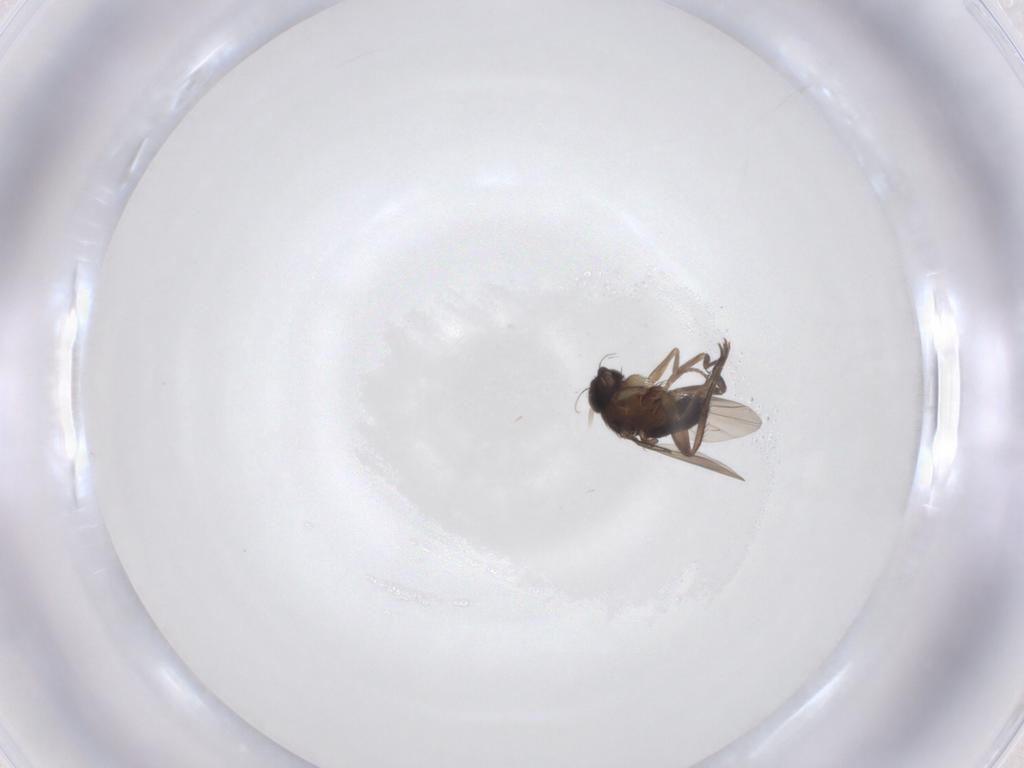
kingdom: Animalia
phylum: Arthropoda
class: Insecta
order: Diptera
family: Phoridae
